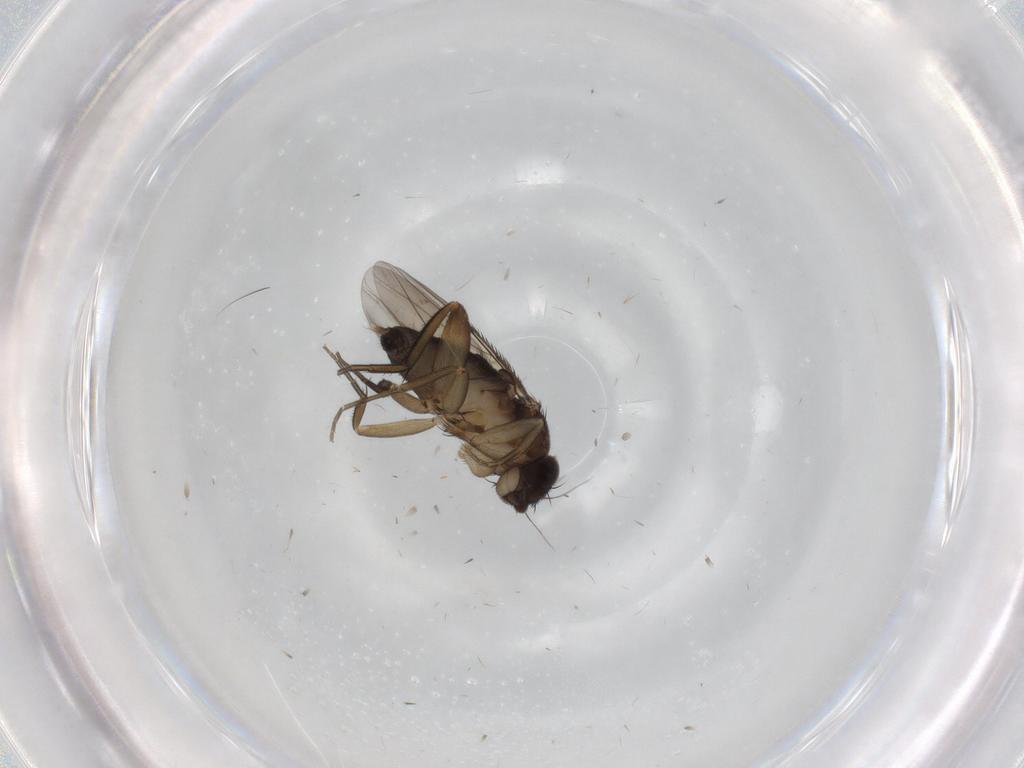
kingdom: Animalia
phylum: Arthropoda
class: Insecta
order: Diptera
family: Phoridae
